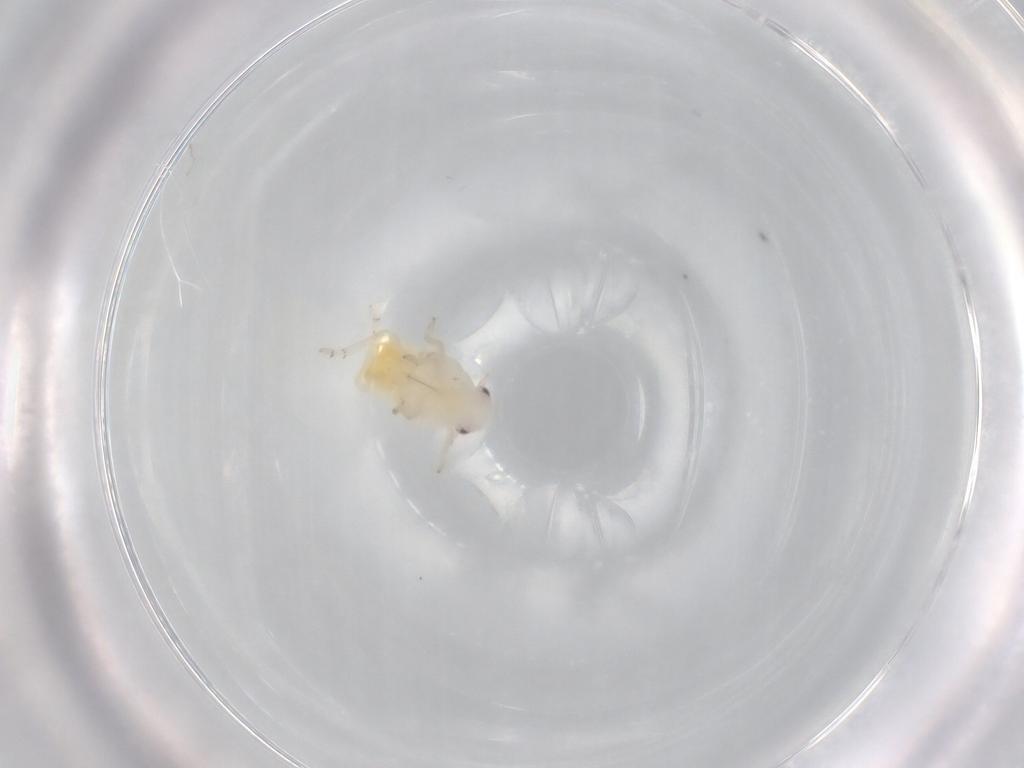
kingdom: Animalia
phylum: Arthropoda
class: Insecta
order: Hemiptera
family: Flatidae
